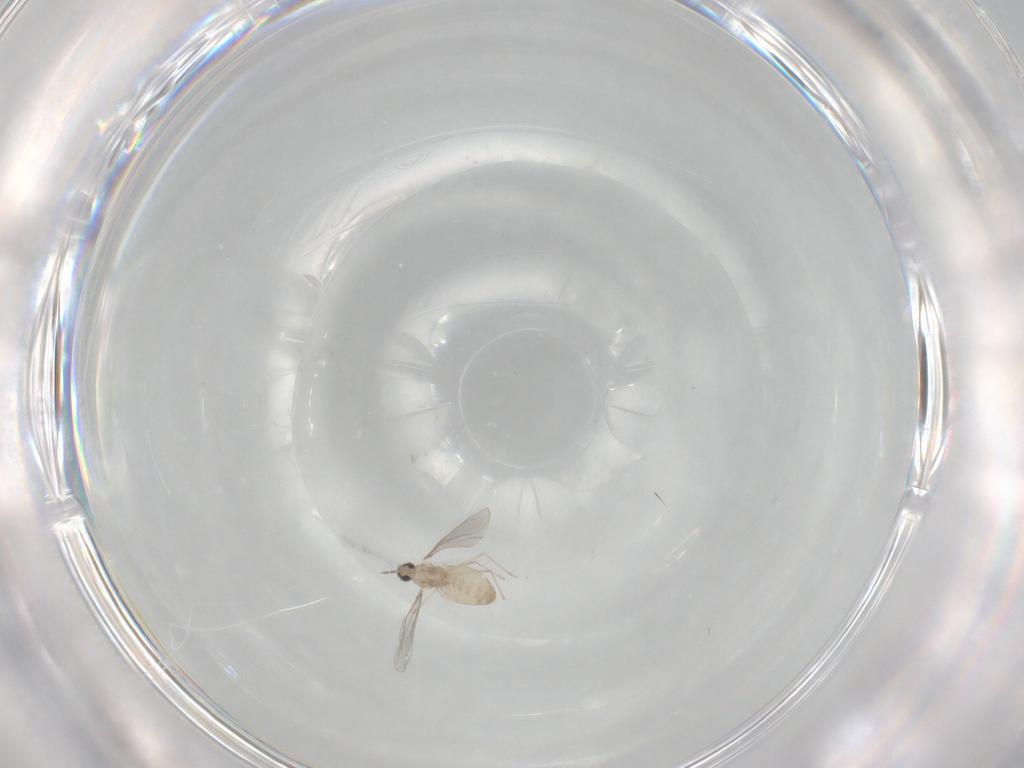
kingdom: Animalia
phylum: Arthropoda
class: Insecta
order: Diptera
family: Cecidomyiidae
